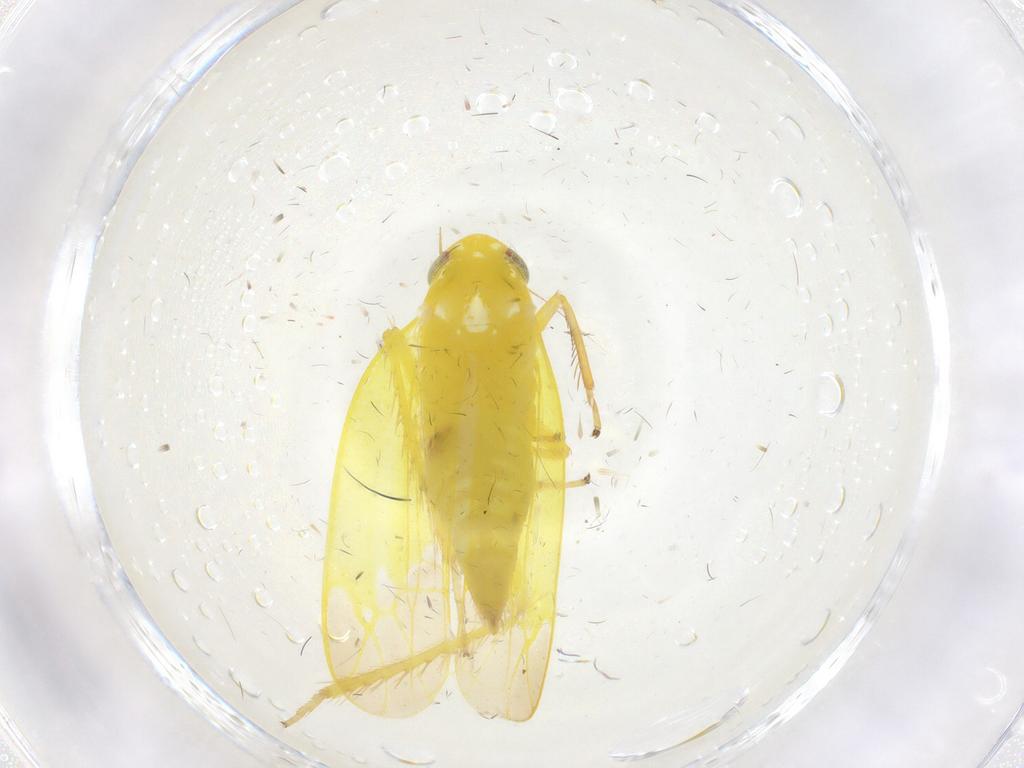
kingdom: Animalia
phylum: Arthropoda
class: Insecta
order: Hemiptera
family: Cicadellidae
